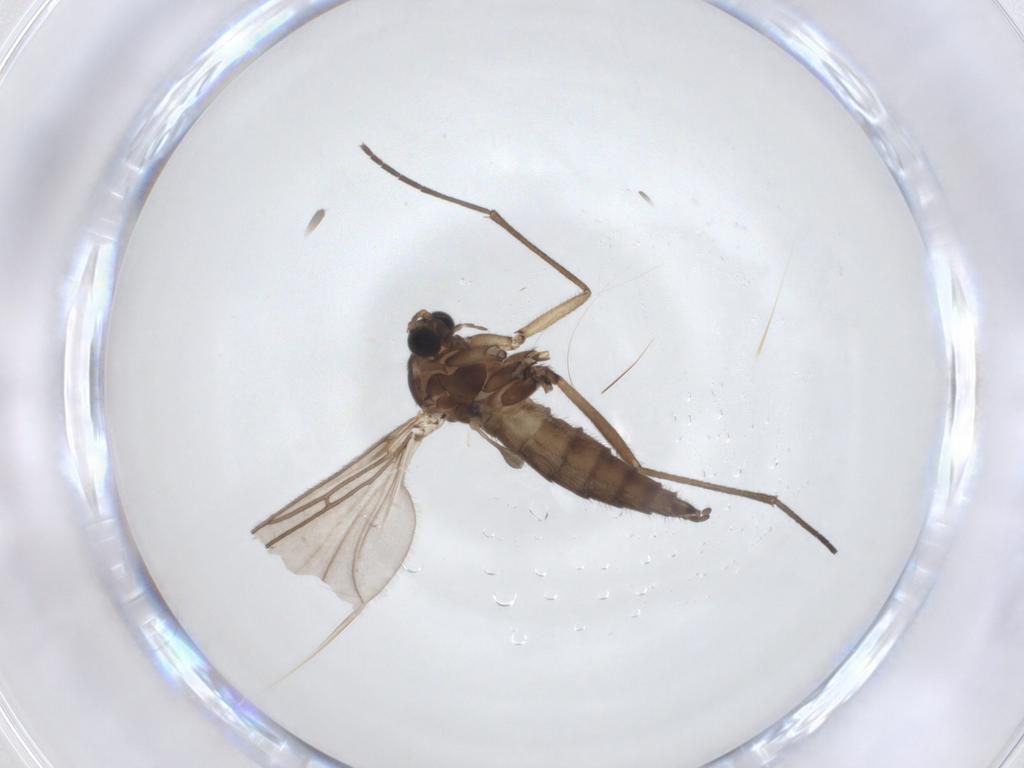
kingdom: Animalia
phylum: Arthropoda
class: Insecta
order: Diptera
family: Sciaridae
